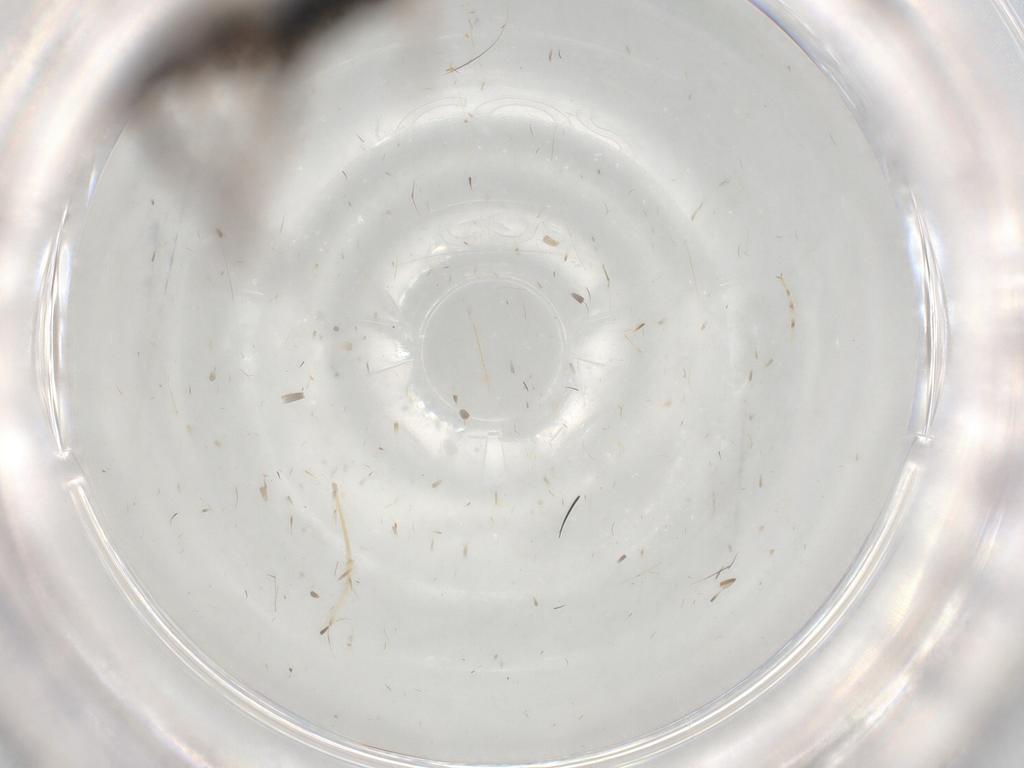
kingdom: Animalia
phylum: Arthropoda
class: Insecta
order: Hymenoptera
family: Braconidae
